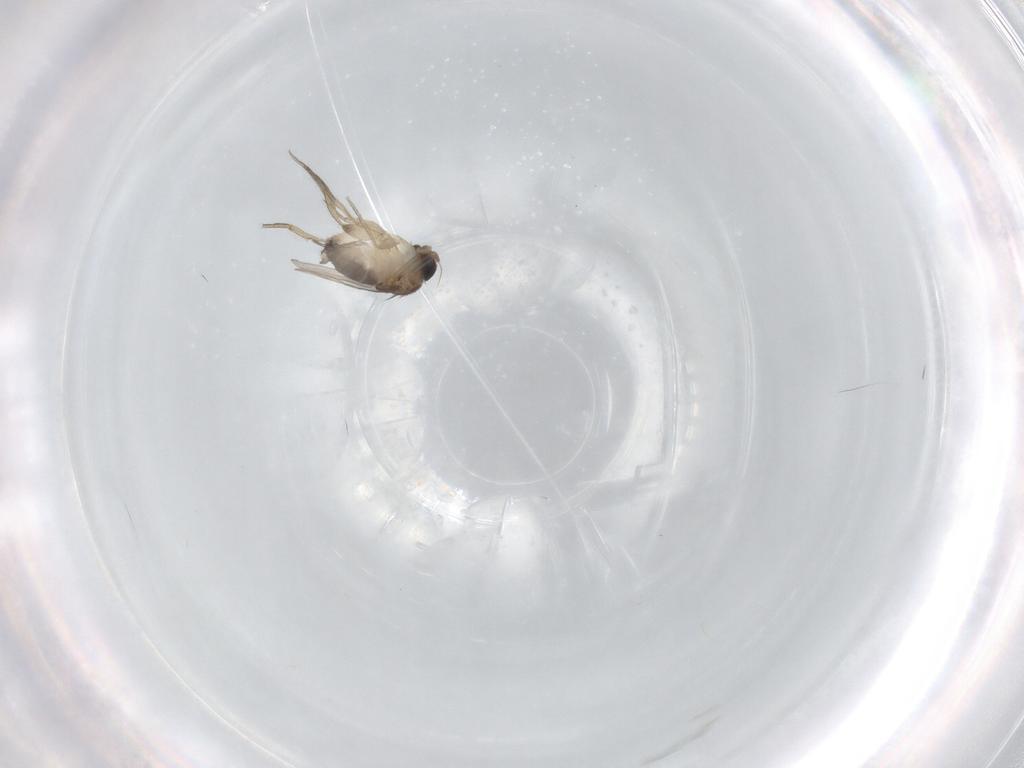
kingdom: Animalia
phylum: Arthropoda
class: Insecta
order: Diptera
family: Phoridae
